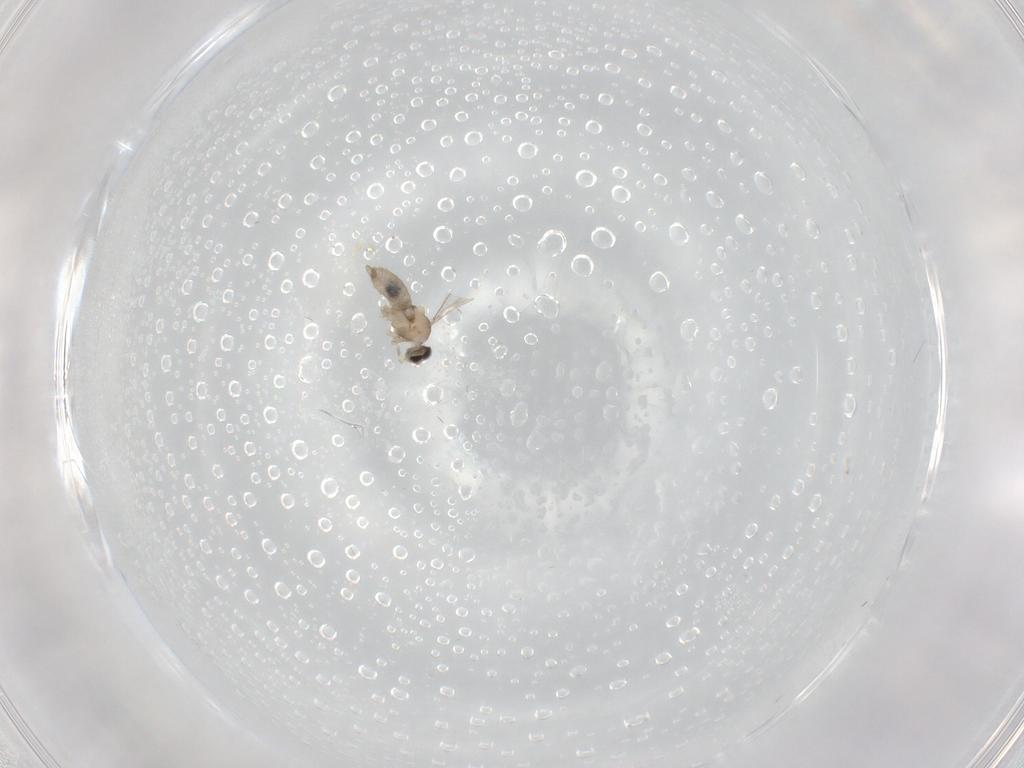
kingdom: Animalia
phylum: Arthropoda
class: Insecta
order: Diptera
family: Cecidomyiidae
